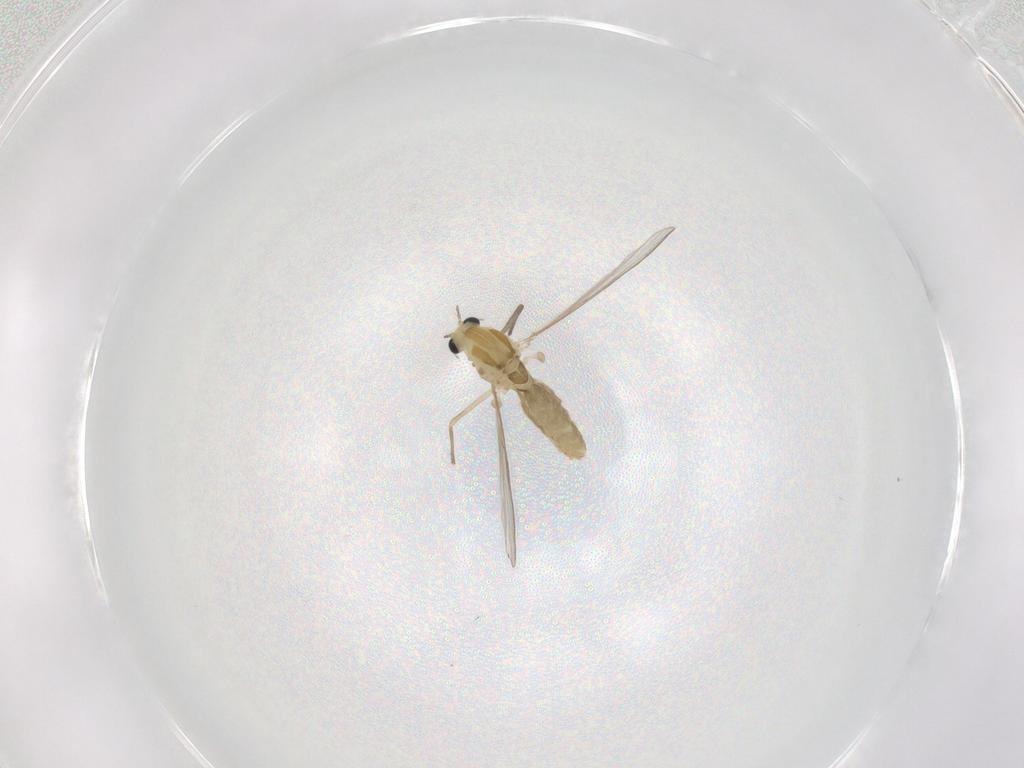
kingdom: Animalia
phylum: Arthropoda
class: Insecta
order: Diptera
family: Chironomidae
